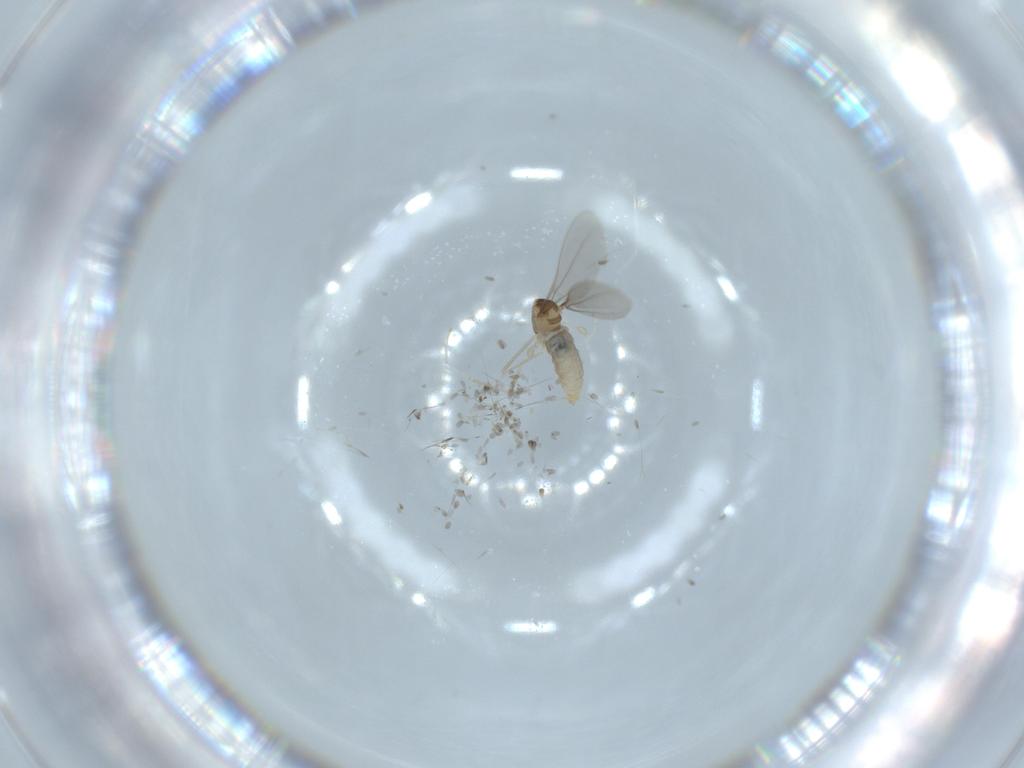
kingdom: Animalia
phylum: Arthropoda
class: Insecta
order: Diptera
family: Cecidomyiidae
